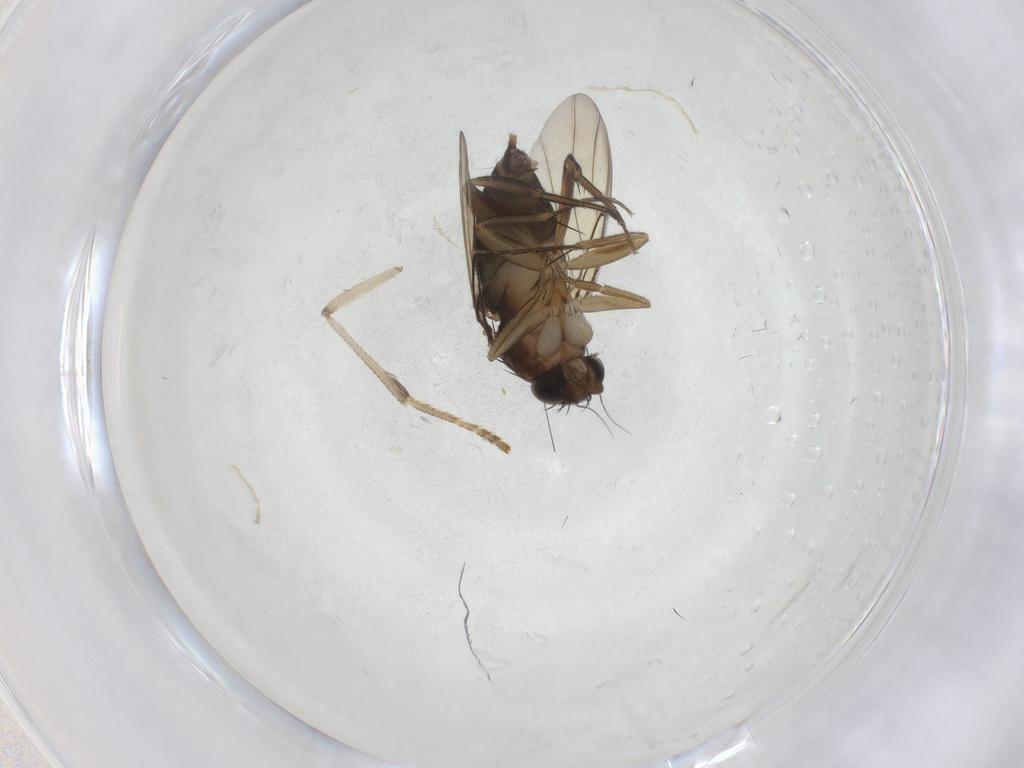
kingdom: Animalia
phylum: Arthropoda
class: Insecta
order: Diptera
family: Phoridae
